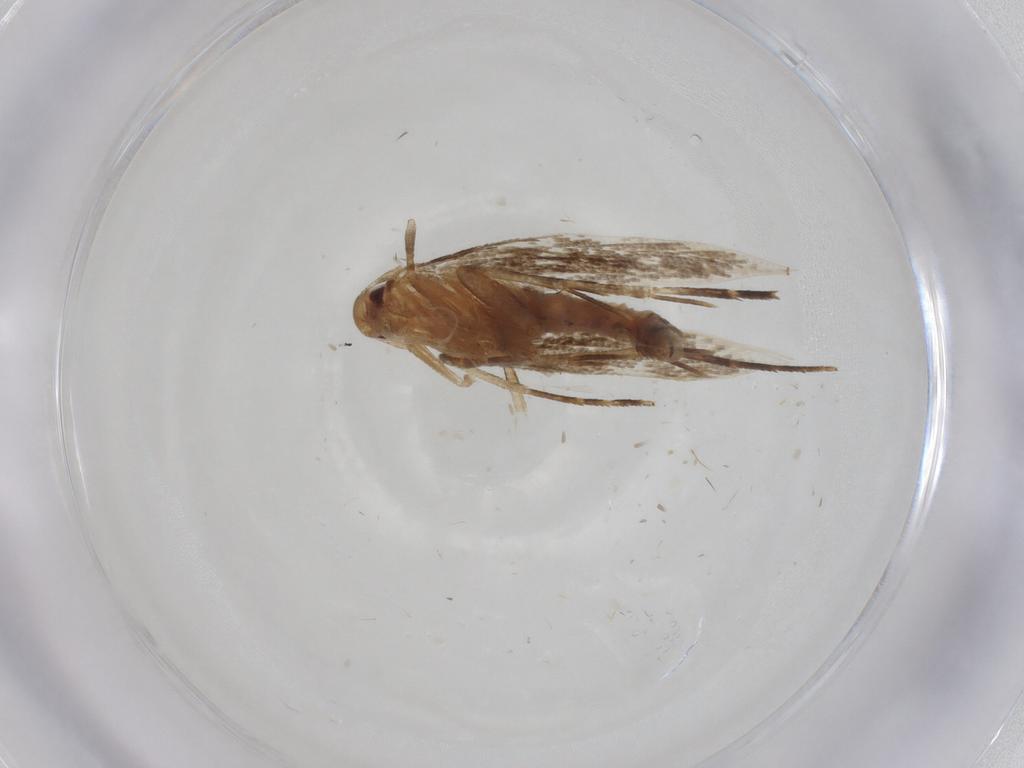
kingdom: Animalia
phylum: Arthropoda
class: Insecta
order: Lepidoptera
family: Cosmopterigidae
